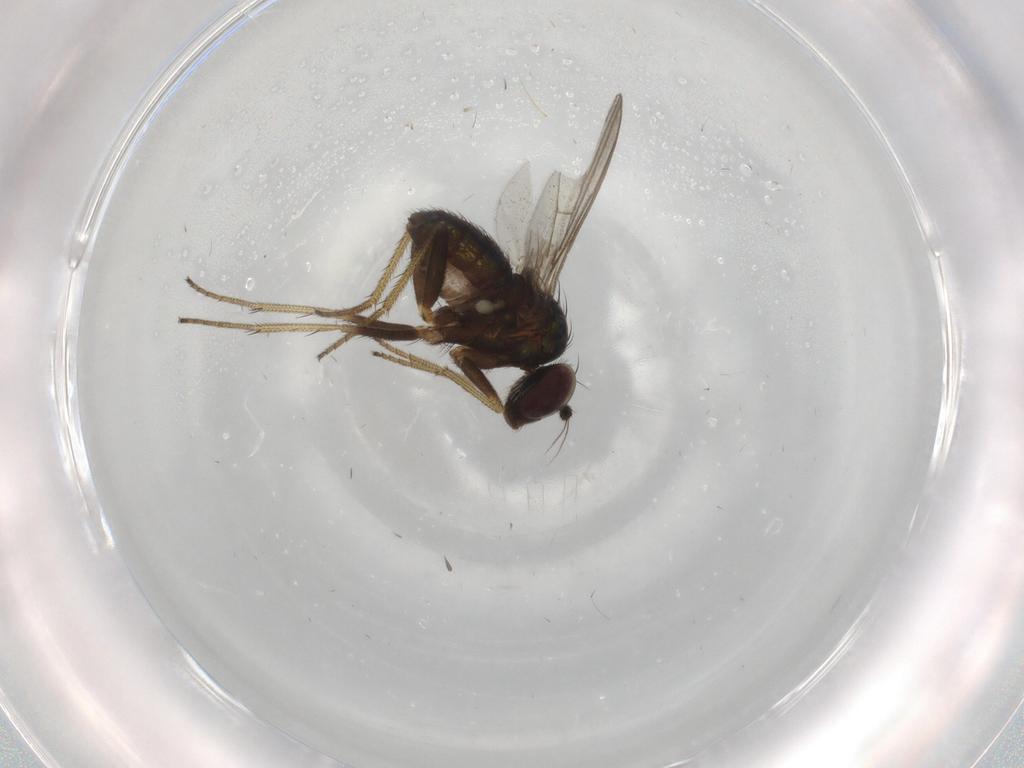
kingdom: Animalia
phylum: Arthropoda
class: Insecta
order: Diptera
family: Dolichopodidae
